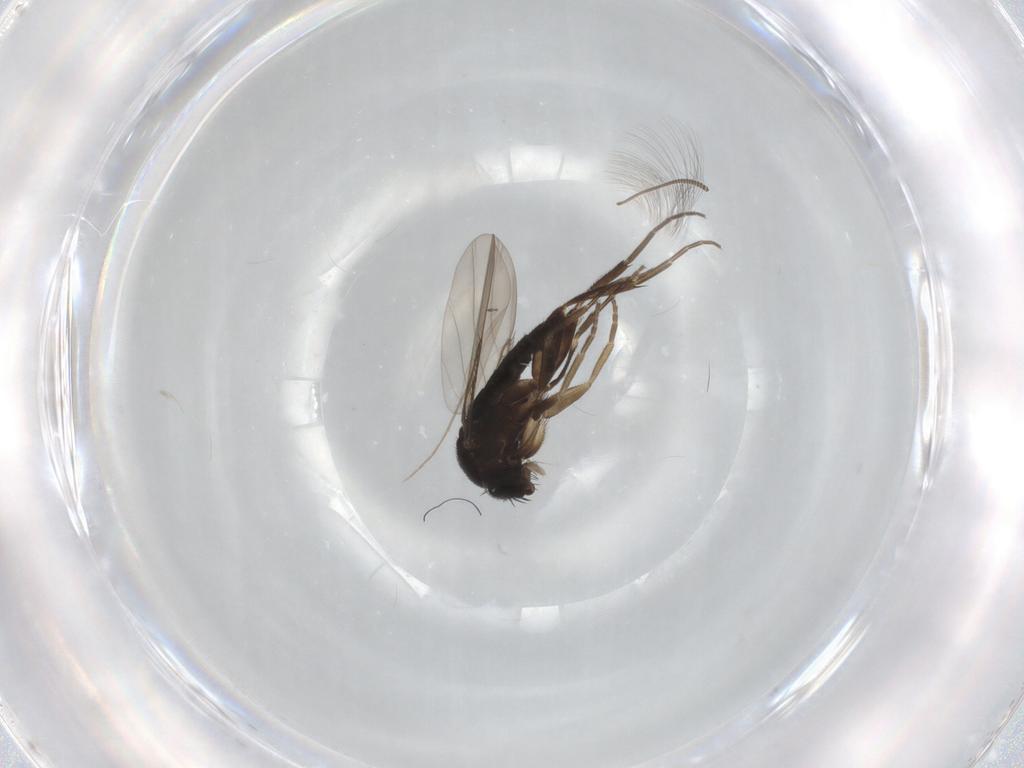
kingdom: Animalia
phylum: Arthropoda
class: Insecta
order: Diptera
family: Phoridae
